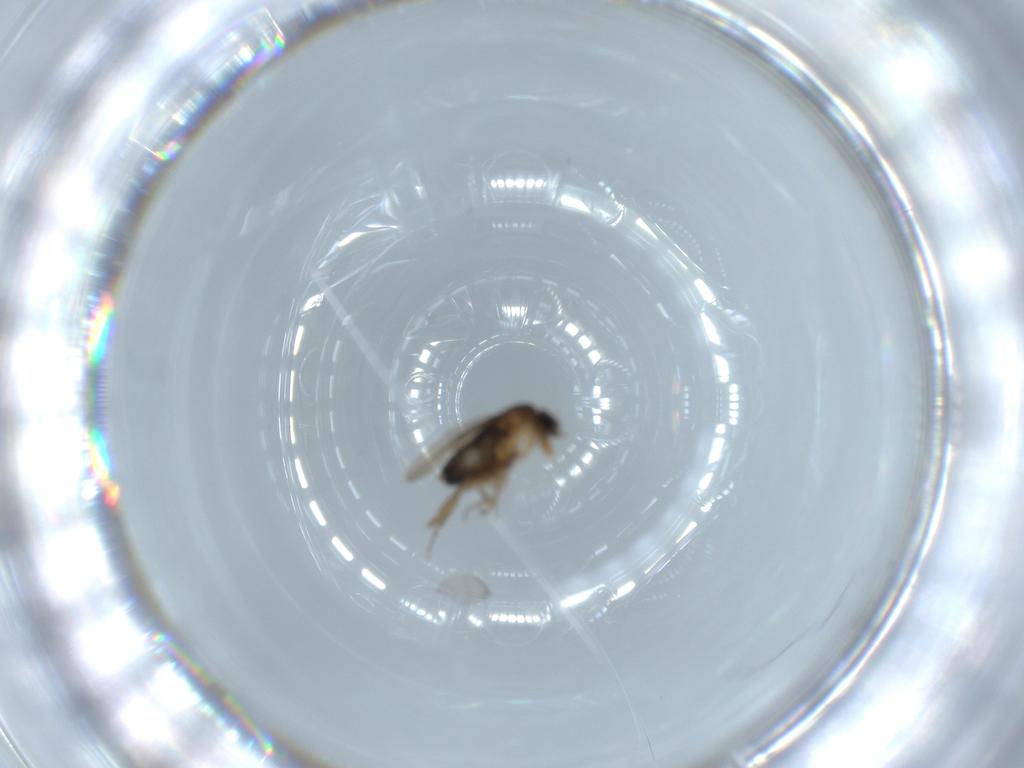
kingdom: Animalia
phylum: Arthropoda
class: Insecta
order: Diptera
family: Phoridae
